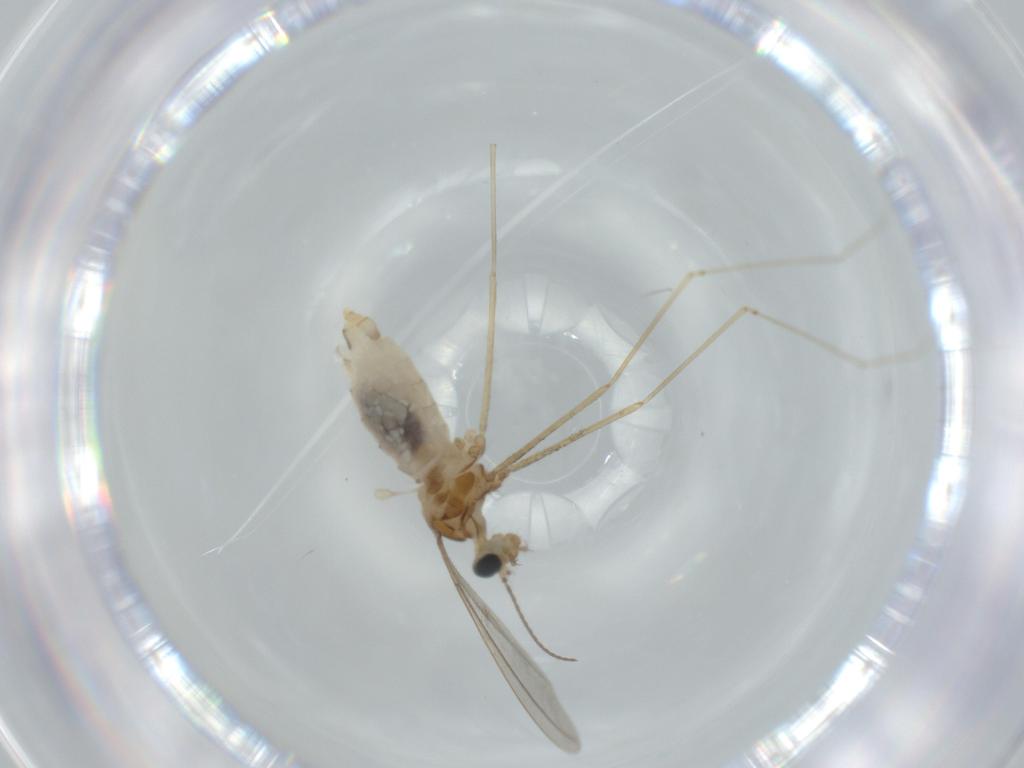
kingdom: Animalia
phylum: Arthropoda
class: Insecta
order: Diptera
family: Cecidomyiidae
